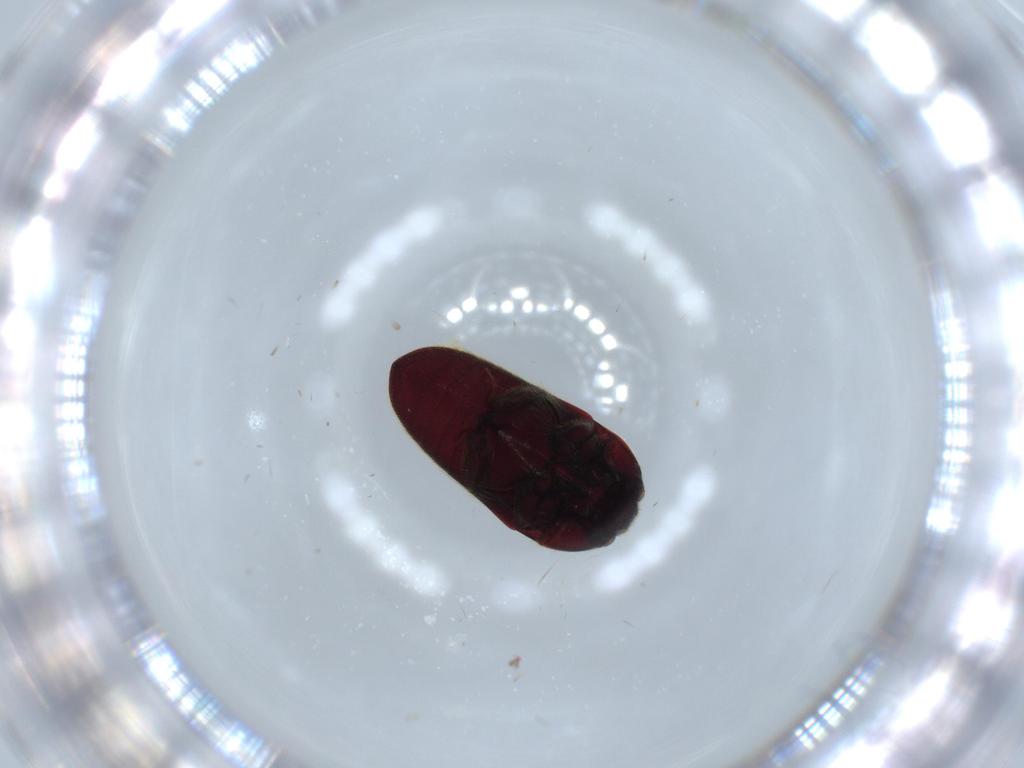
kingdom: Animalia
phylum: Arthropoda
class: Insecta
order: Coleoptera
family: Throscidae
